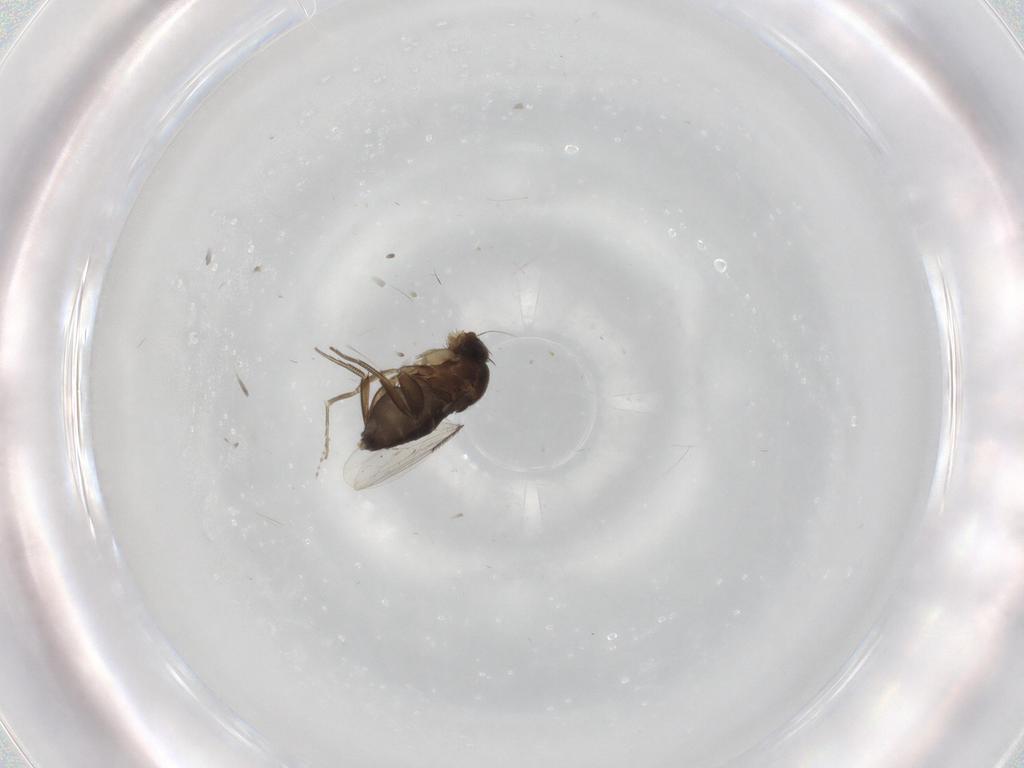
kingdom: Animalia
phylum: Arthropoda
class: Insecta
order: Diptera
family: Phoridae
